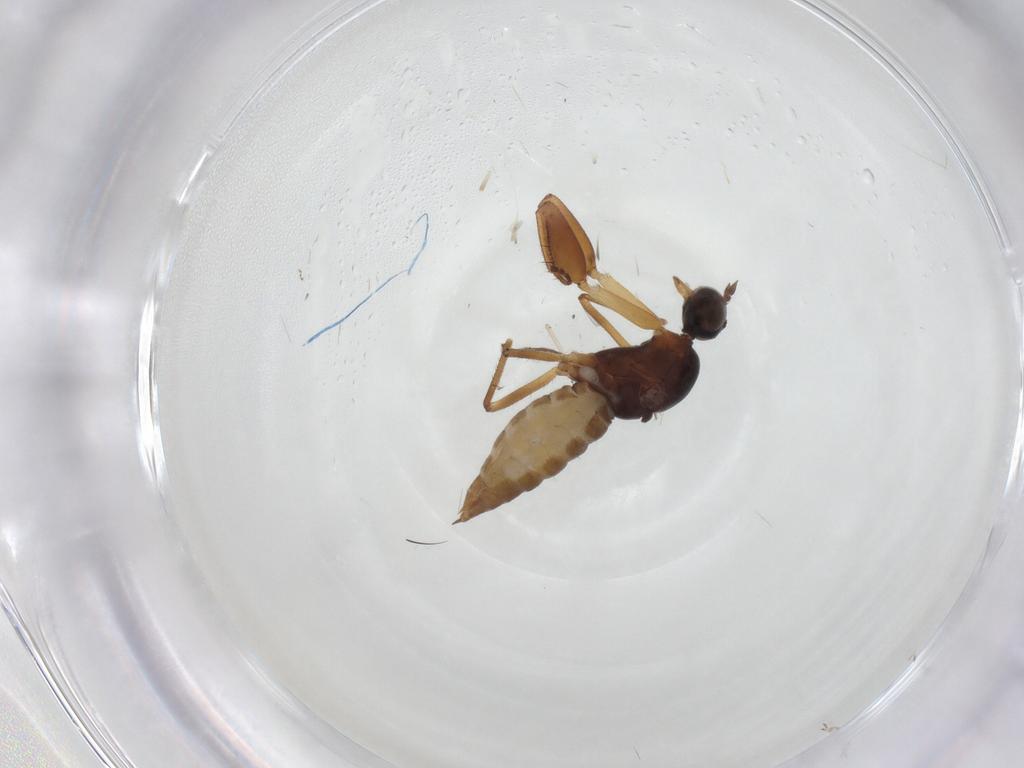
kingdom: Animalia
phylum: Arthropoda
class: Insecta
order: Diptera
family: Empididae
